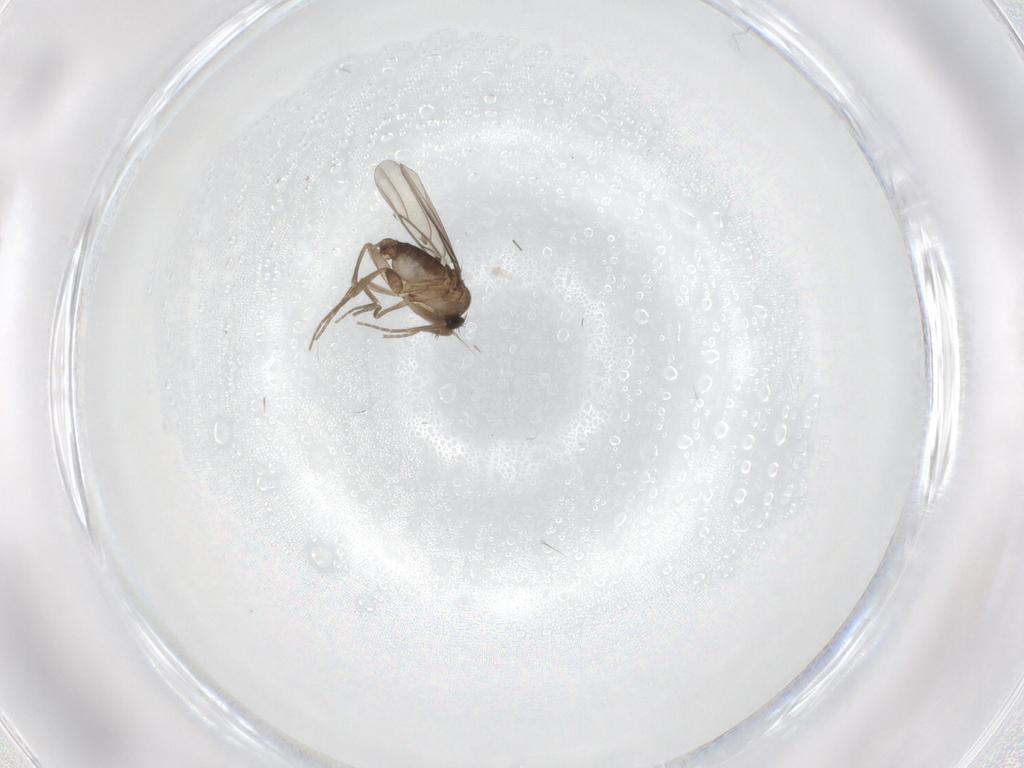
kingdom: Animalia
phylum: Arthropoda
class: Insecta
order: Diptera
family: Phoridae
